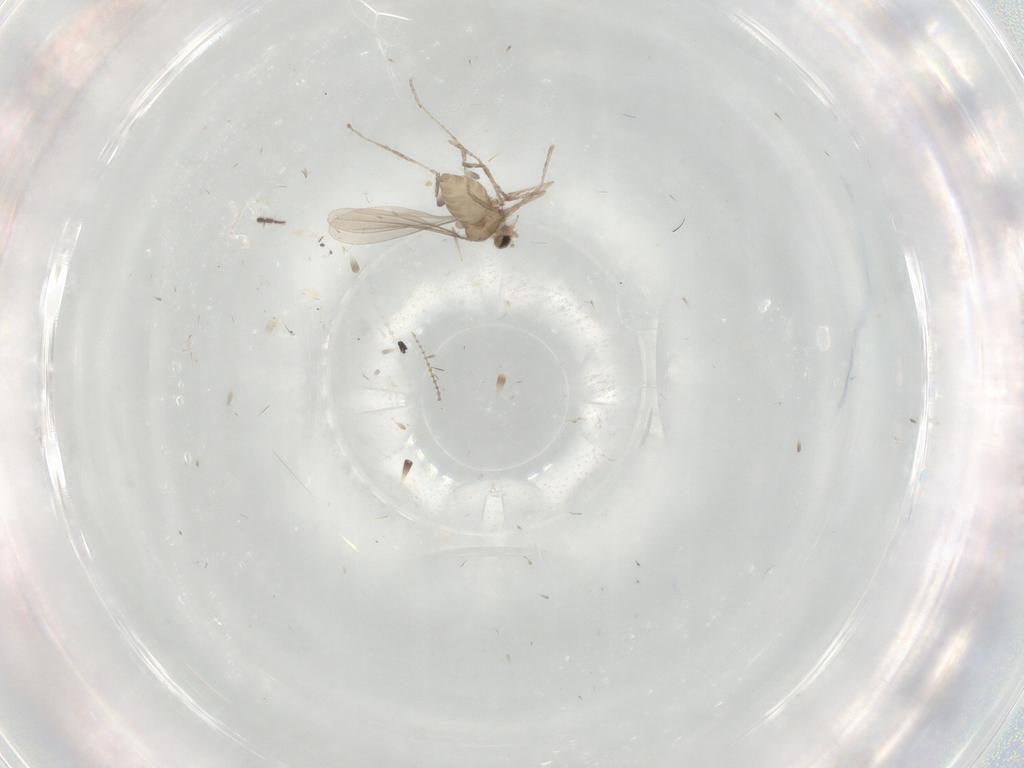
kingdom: Animalia
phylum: Arthropoda
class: Insecta
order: Diptera
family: Cecidomyiidae
